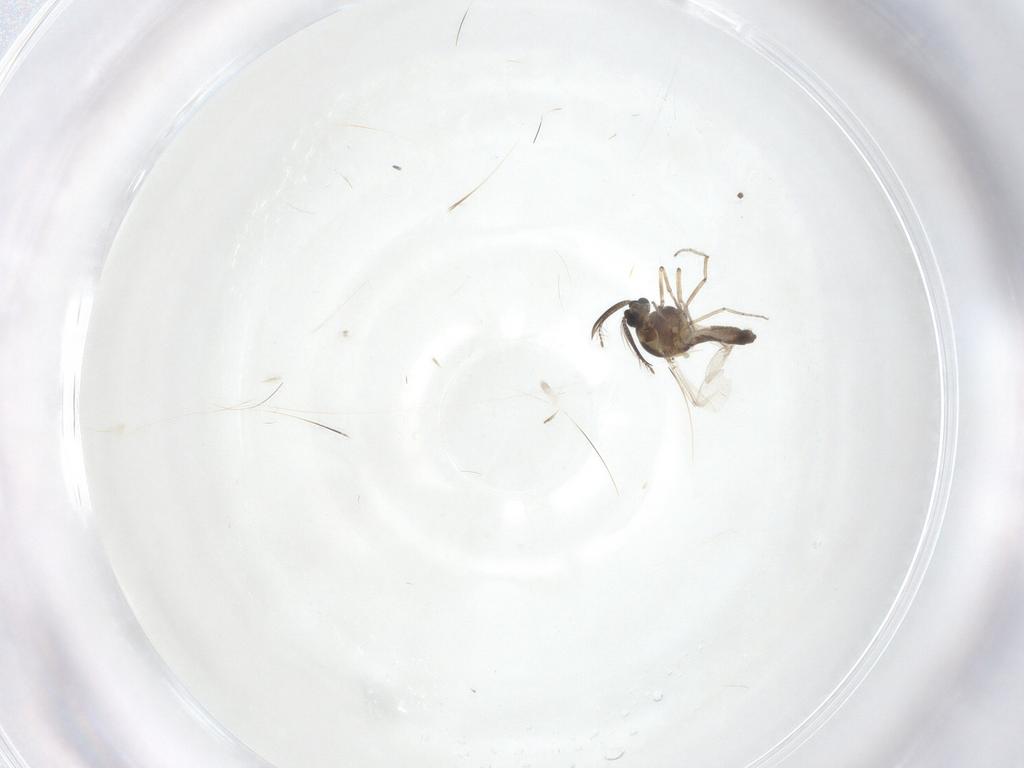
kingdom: Animalia
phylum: Arthropoda
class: Insecta
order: Diptera
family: Ceratopogonidae
